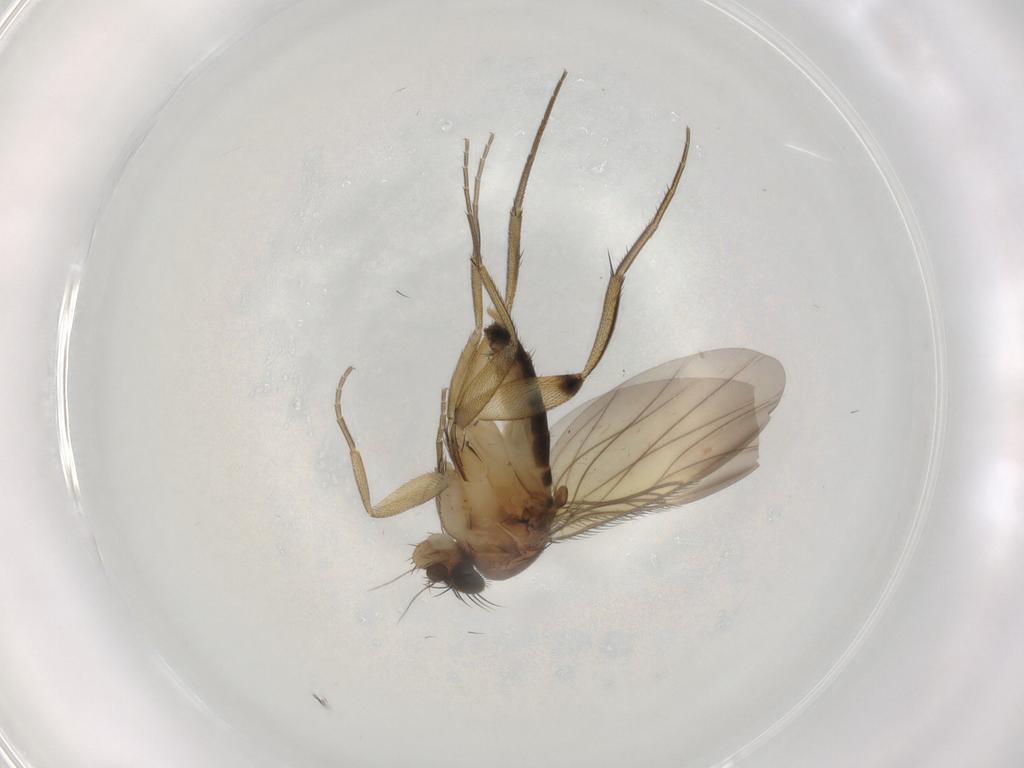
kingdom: Animalia
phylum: Arthropoda
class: Insecta
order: Diptera
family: Phoridae
